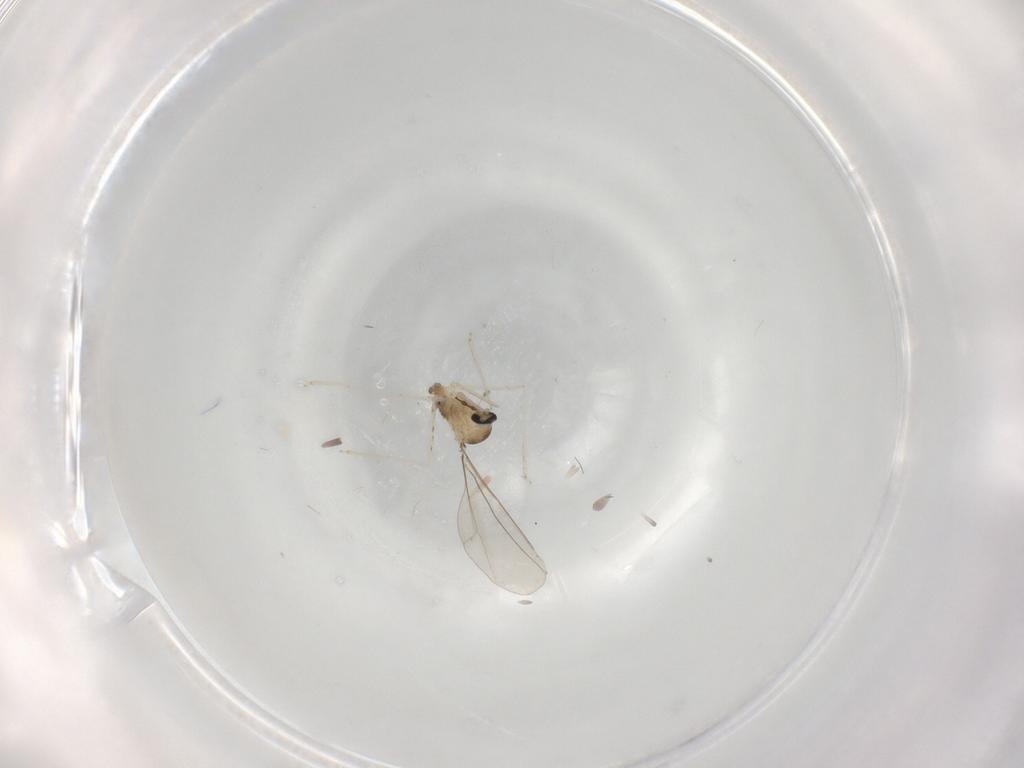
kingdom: Animalia
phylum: Arthropoda
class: Insecta
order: Diptera
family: Cecidomyiidae
